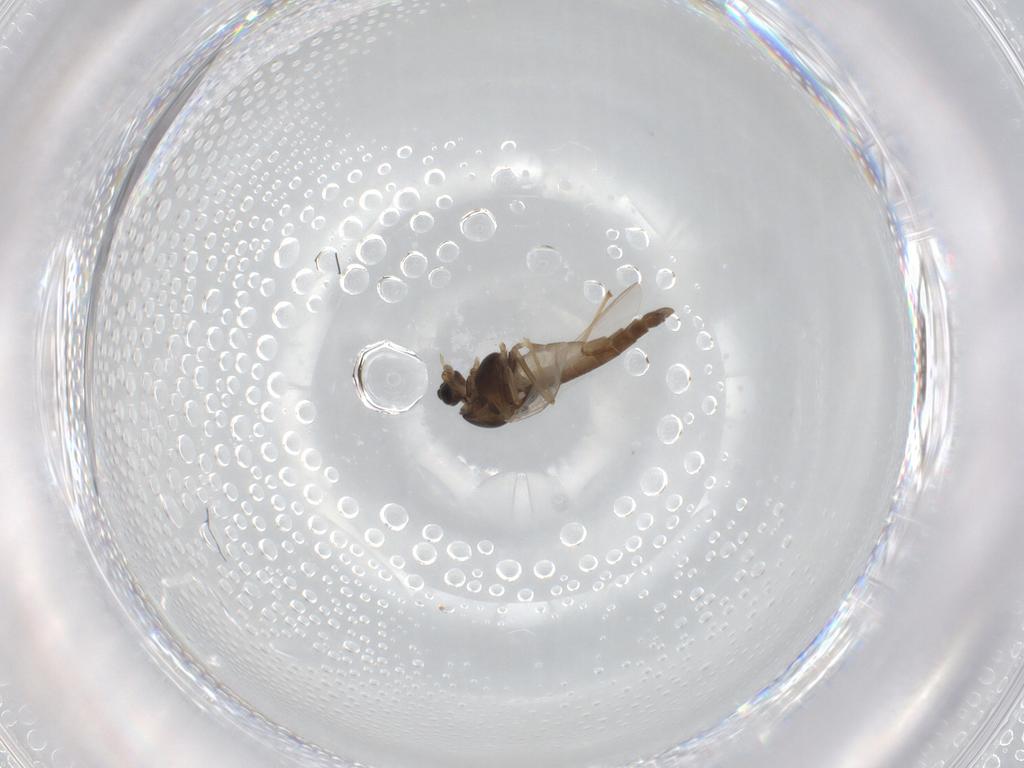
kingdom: Animalia
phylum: Arthropoda
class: Insecta
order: Diptera
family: Chironomidae
